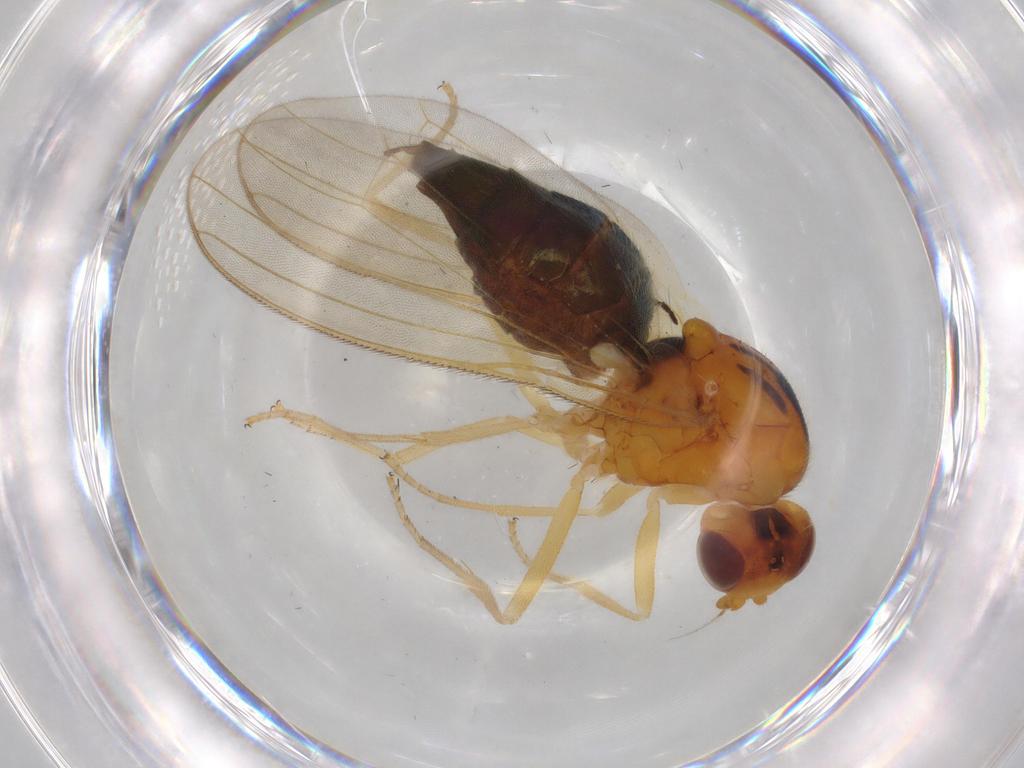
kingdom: Animalia
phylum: Arthropoda
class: Insecta
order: Diptera
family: Hybotidae
